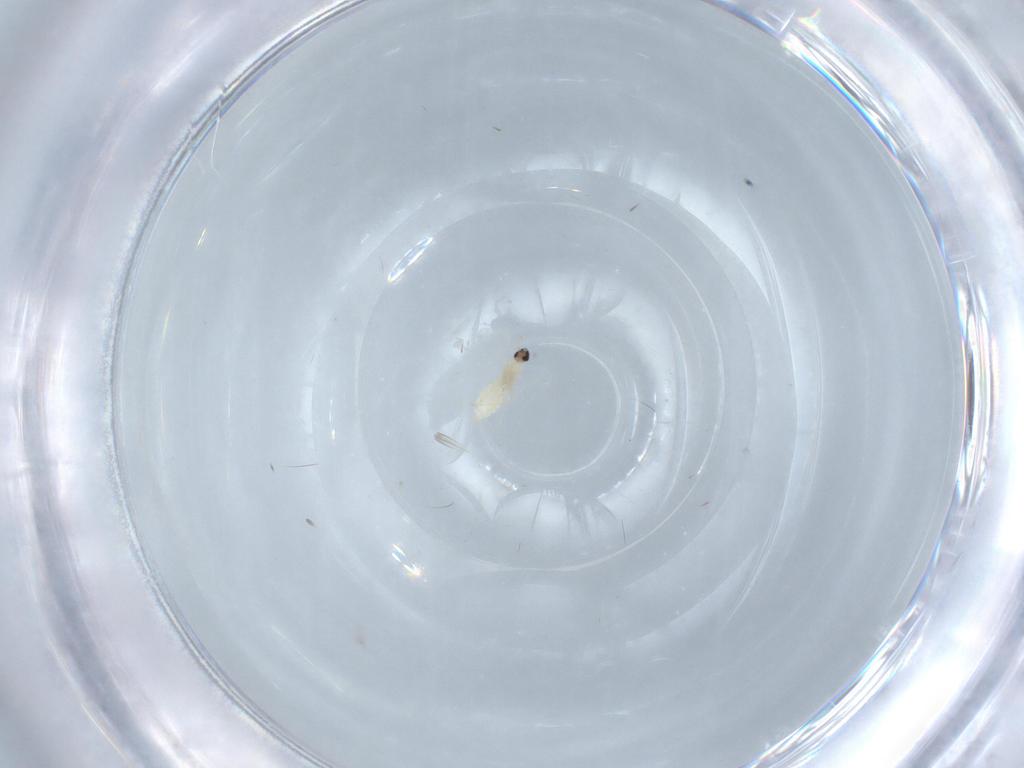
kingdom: Animalia
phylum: Arthropoda
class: Insecta
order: Diptera
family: Cecidomyiidae
